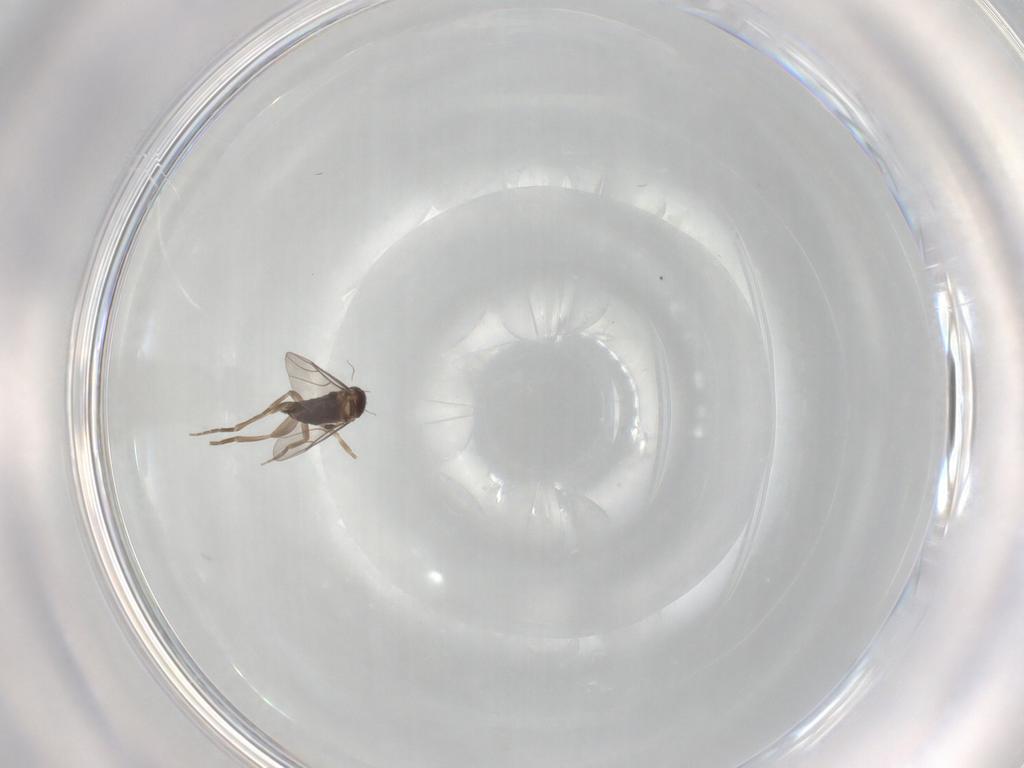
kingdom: Animalia
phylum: Arthropoda
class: Insecta
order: Diptera
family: Phoridae
